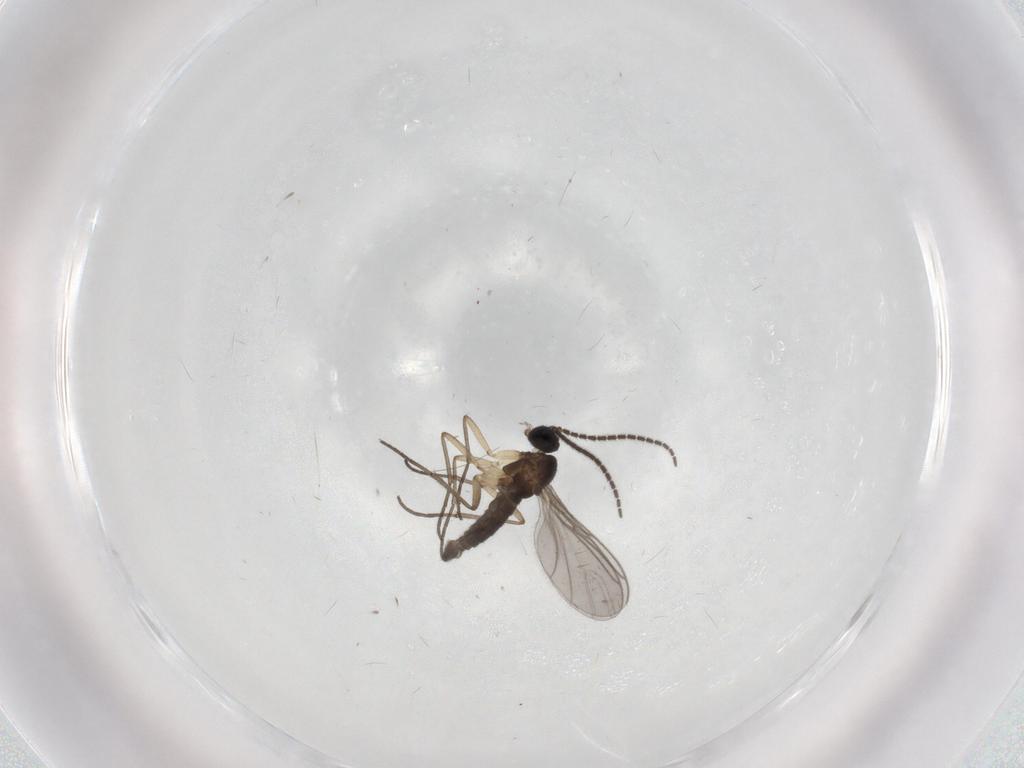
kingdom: Animalia
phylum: Arthropoda
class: Insecta
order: Diptera
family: Sciaridae
